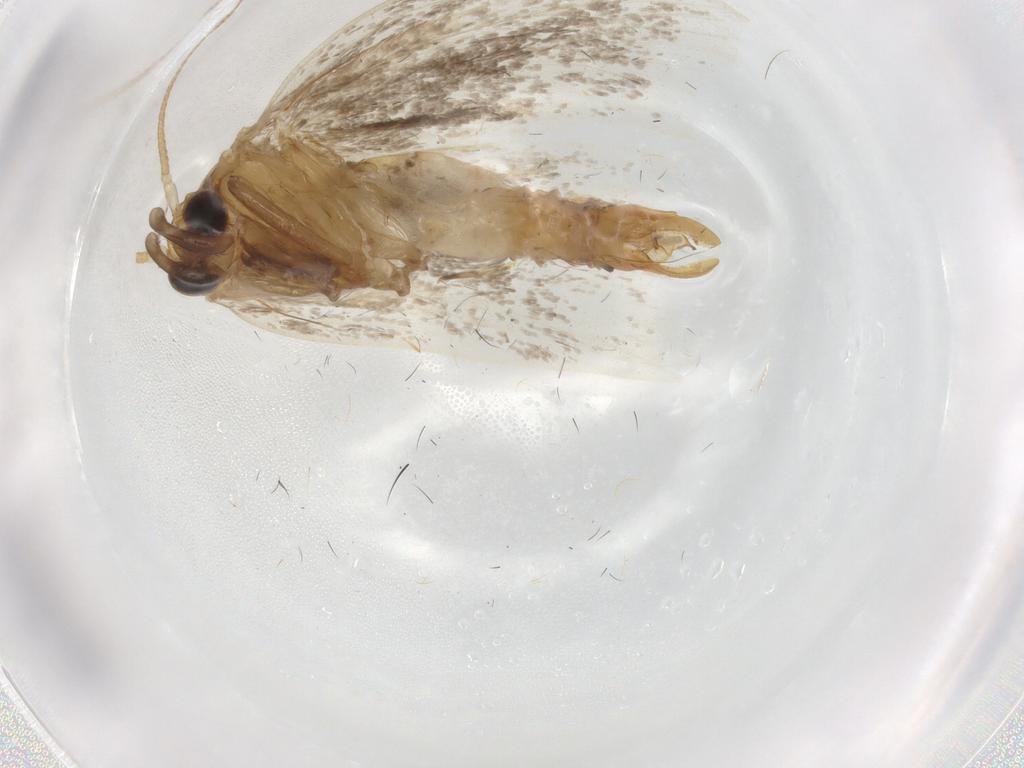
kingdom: Animalia
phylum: Arthropoda
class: Insecta
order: Lepidoptera
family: Tineidae
